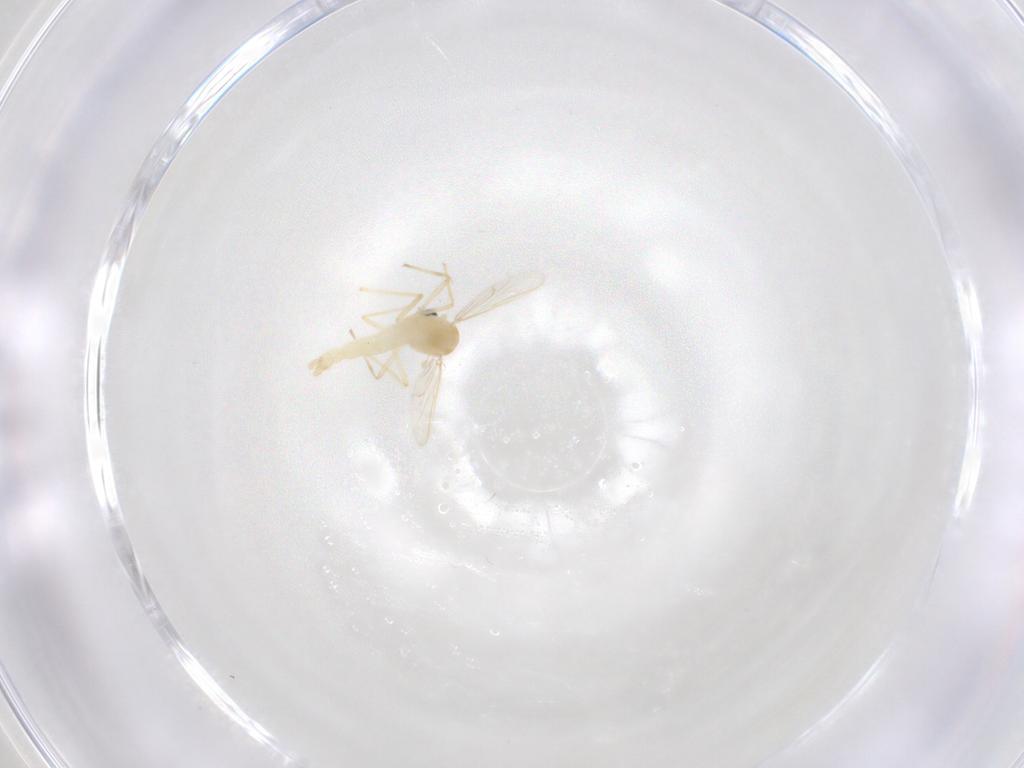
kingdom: Animalia
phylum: Arthropoda
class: Insecta
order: Diptera
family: Chironomidae
